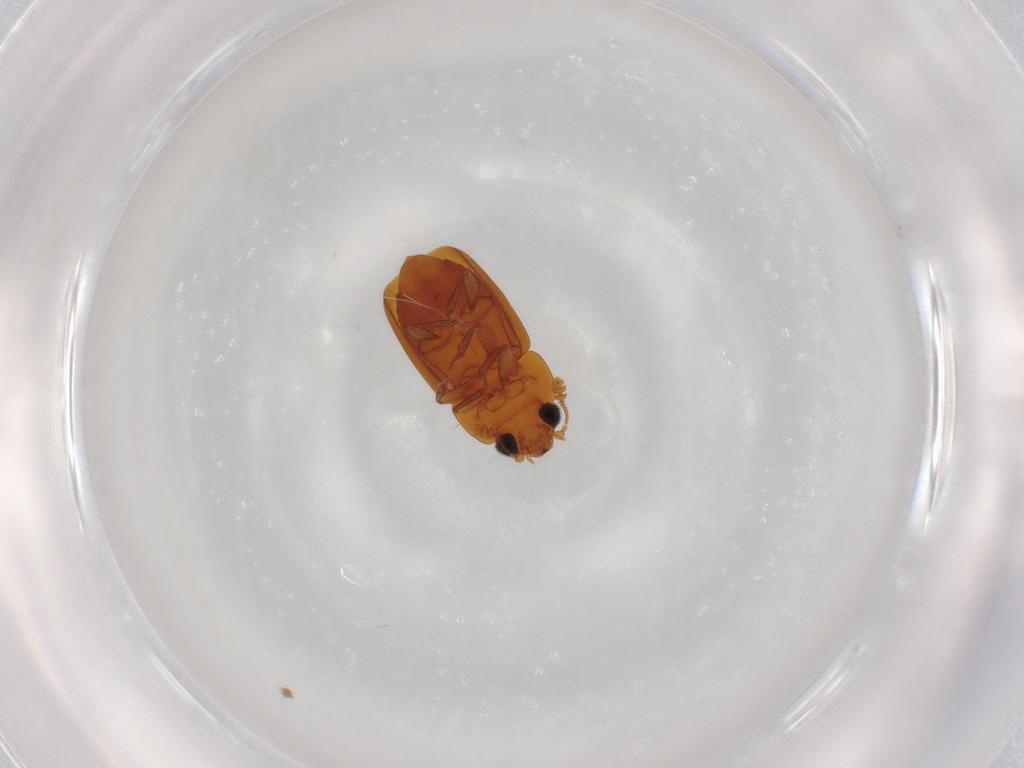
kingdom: Animalia
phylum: Arthropoda
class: Insecta
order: Coleoptera
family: Nitidulidae
